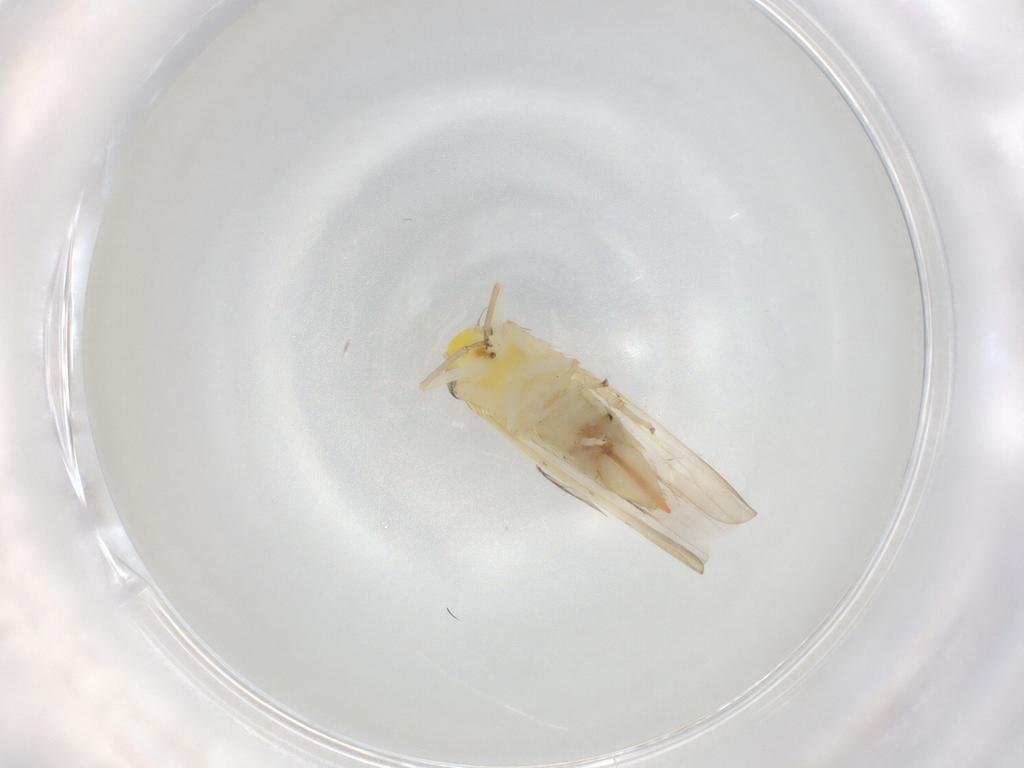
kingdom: Animalia
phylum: Arthropoda
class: Insecta
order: Hemiptera
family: Cicadellidae
